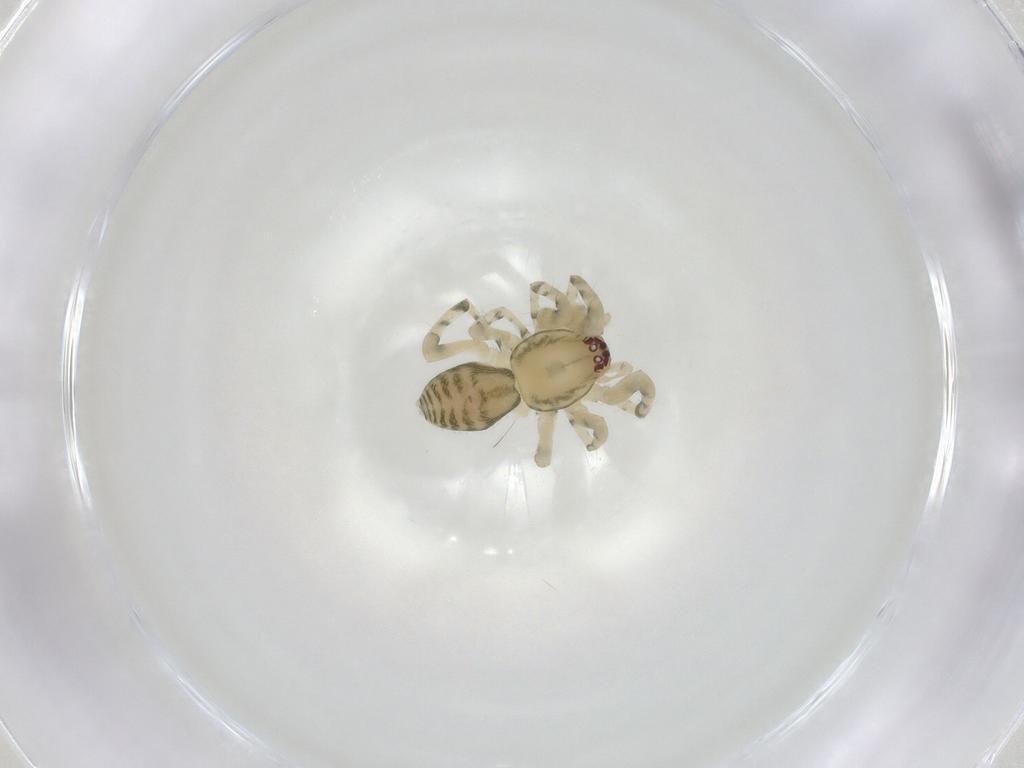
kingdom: Animalia
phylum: Arthropoda
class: Arachnida
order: Araneae
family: Trachelidae
